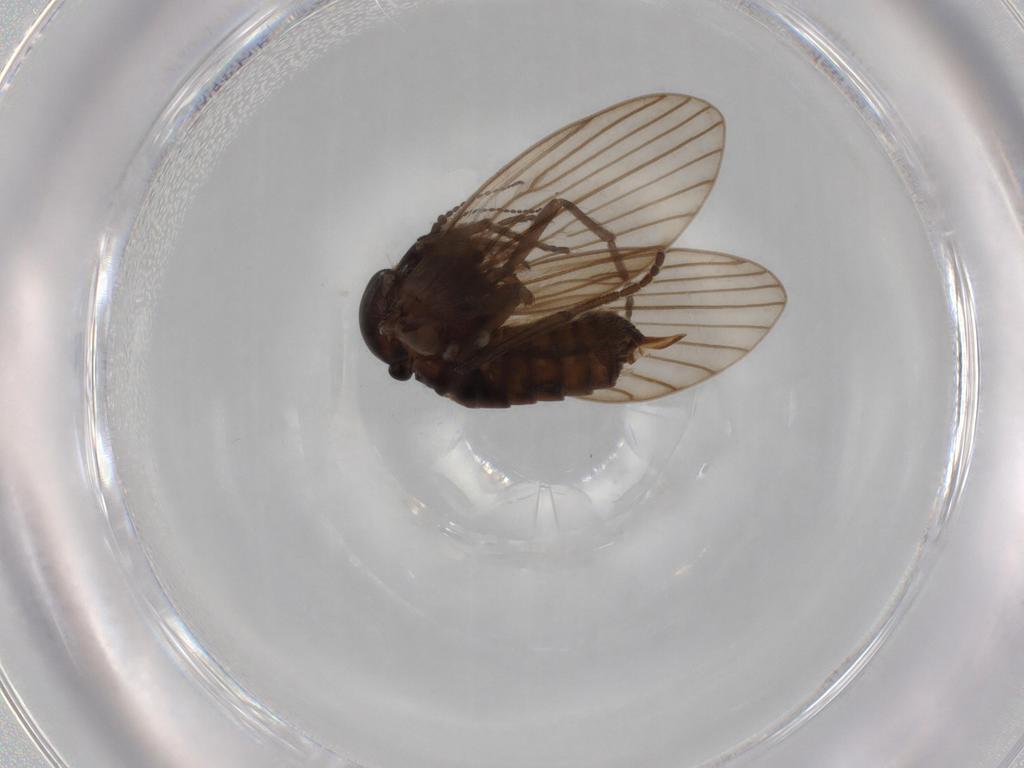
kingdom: Animalia
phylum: Arthropoda
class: Insecta
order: Diptera
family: Psychodidae
